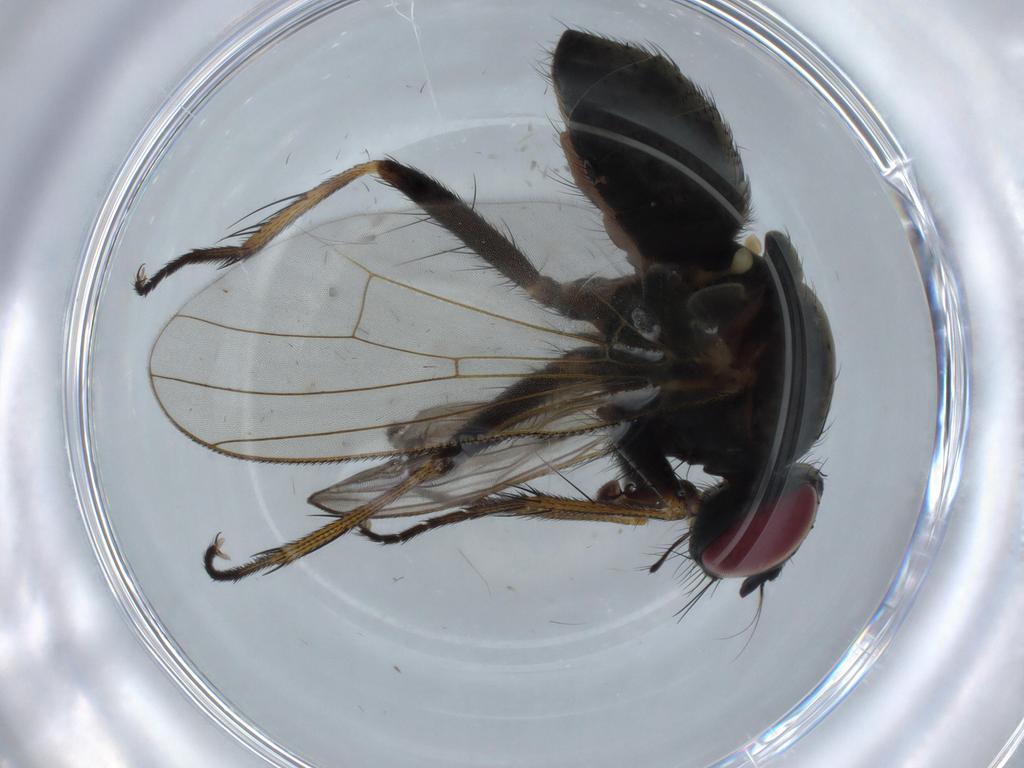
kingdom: Animalia
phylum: Arthropoda
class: Insecta
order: Diptera
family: Drosophilidae
